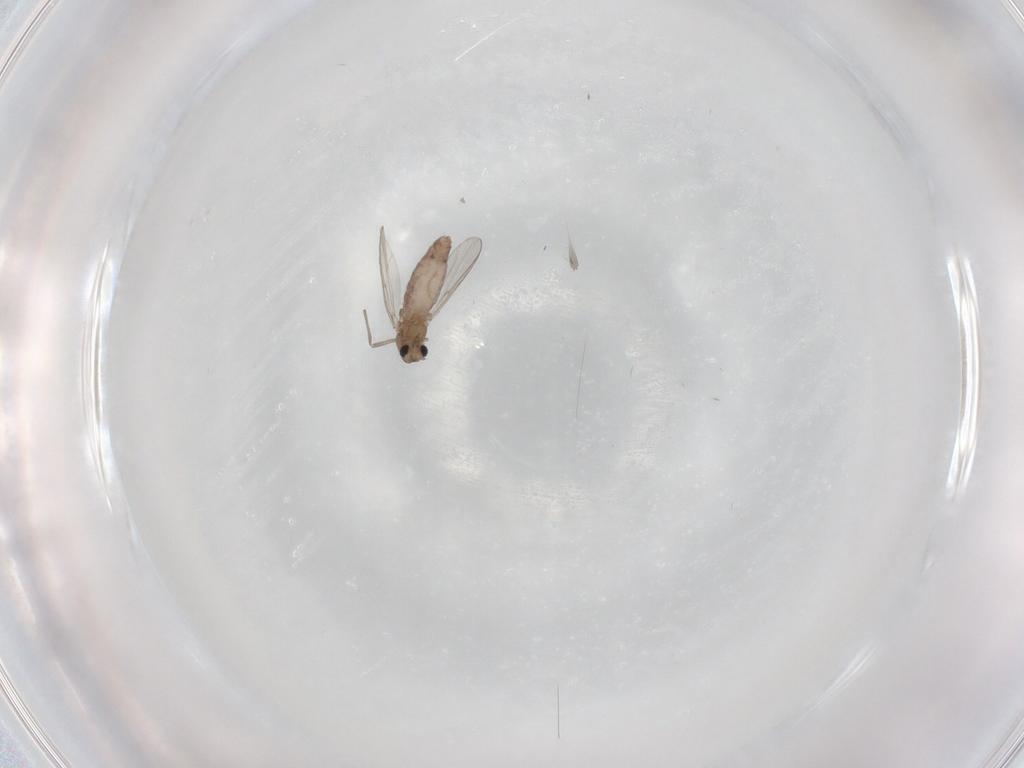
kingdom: Animalia
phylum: Arthropoda
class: Insecta
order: Diptera
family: Chironomidae
